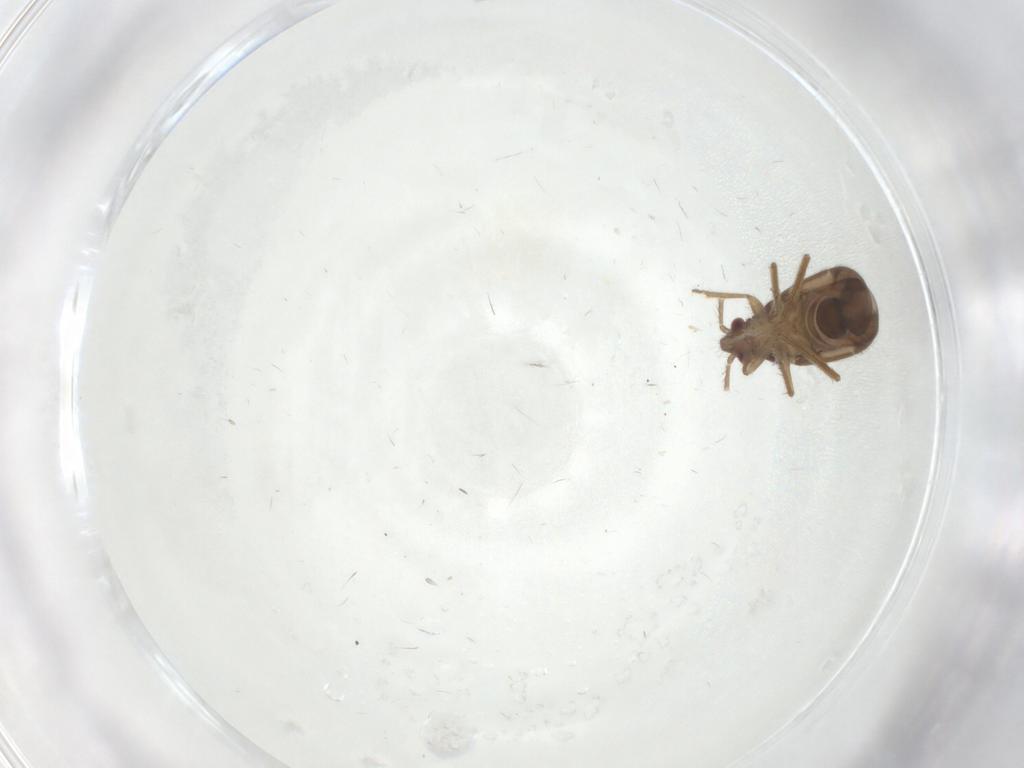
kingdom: Animalia
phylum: Arthropoda
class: Insecta
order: Hemiptera
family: Ceratocombidae
